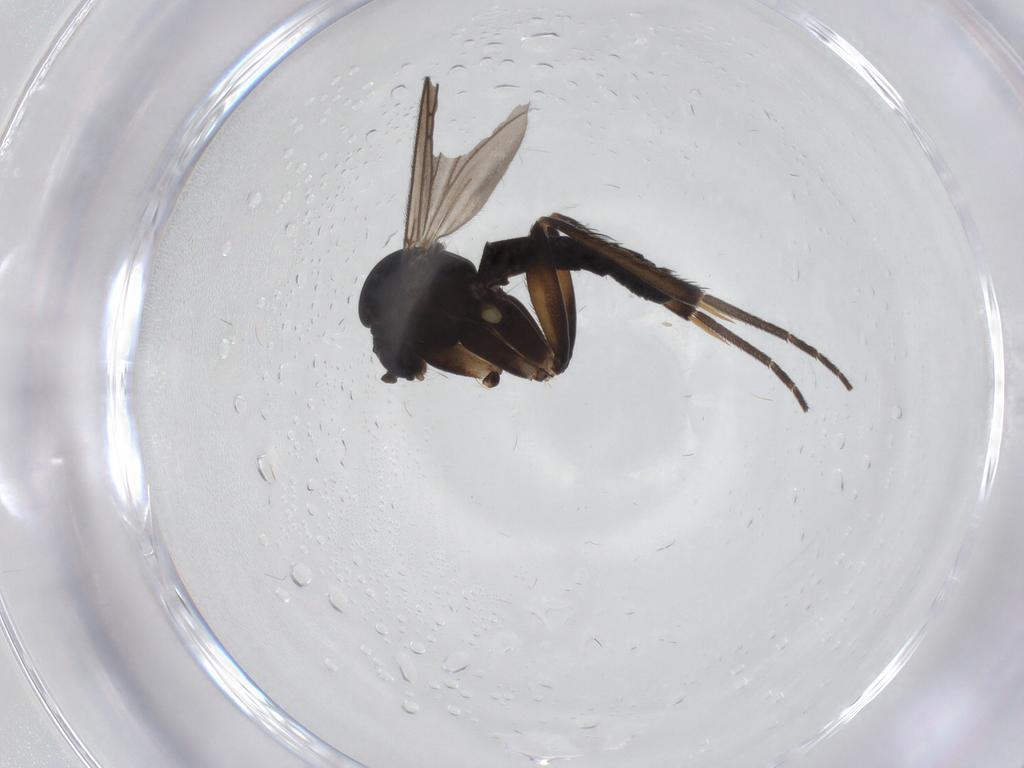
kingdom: Animalia
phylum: Arthropoda
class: Insecta
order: Diptera
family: Mycetophilidae
